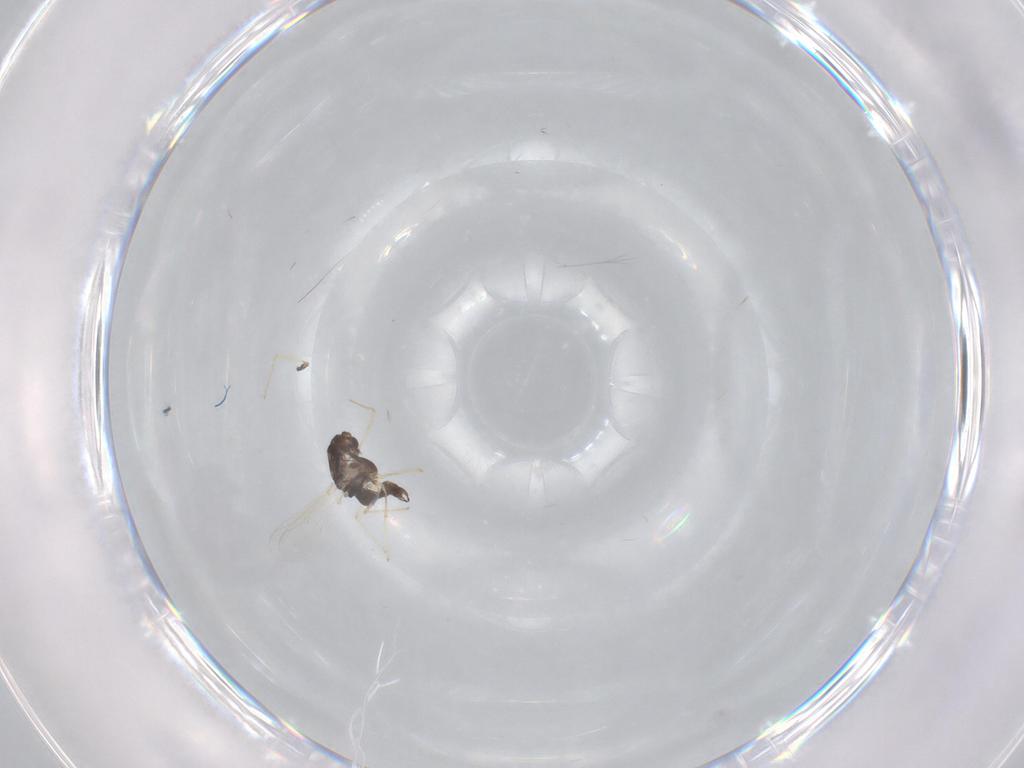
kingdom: Animalia
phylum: Arthropoda
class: Insecta
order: Diptera
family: Chironomidae
